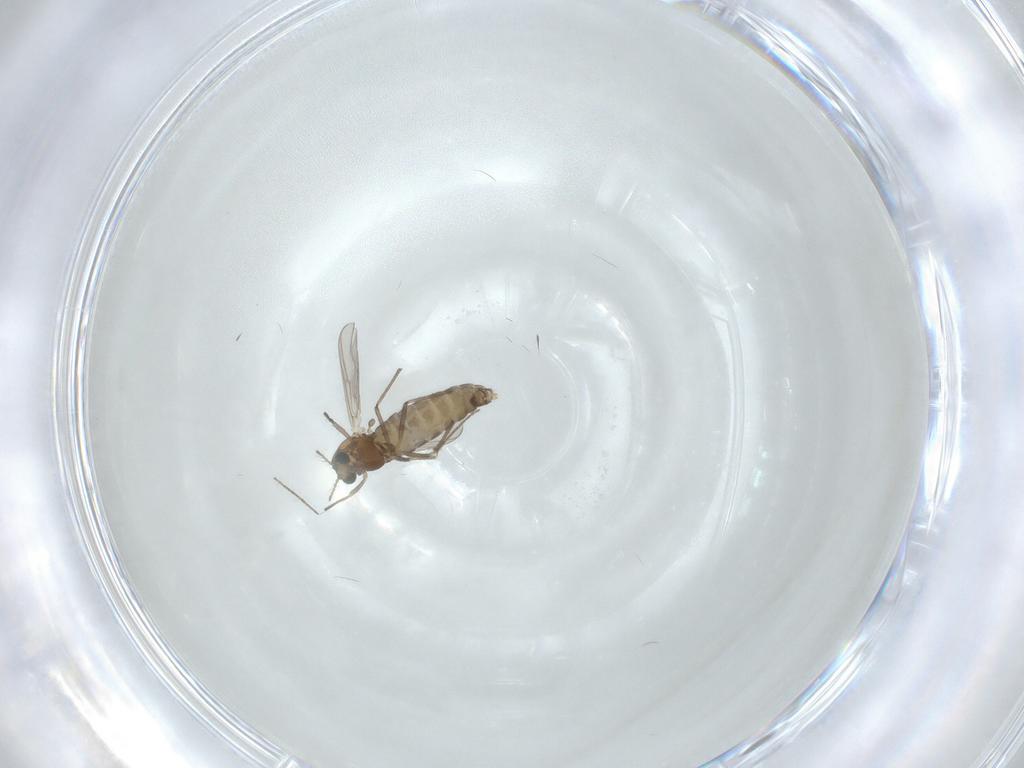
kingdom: Animalia
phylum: Arthropoda
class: Insecta
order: Diptera
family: Chironomidae
